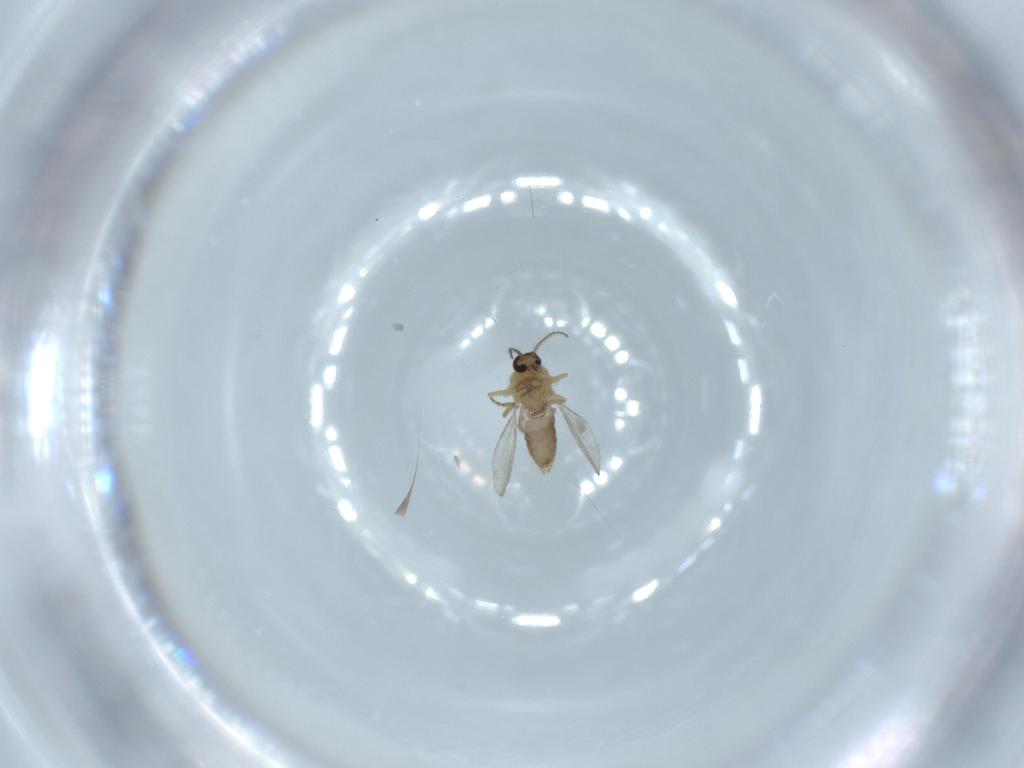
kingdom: Animalia
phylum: Arthropoda
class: Insecta
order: Diptera
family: Ceratopogonidae
